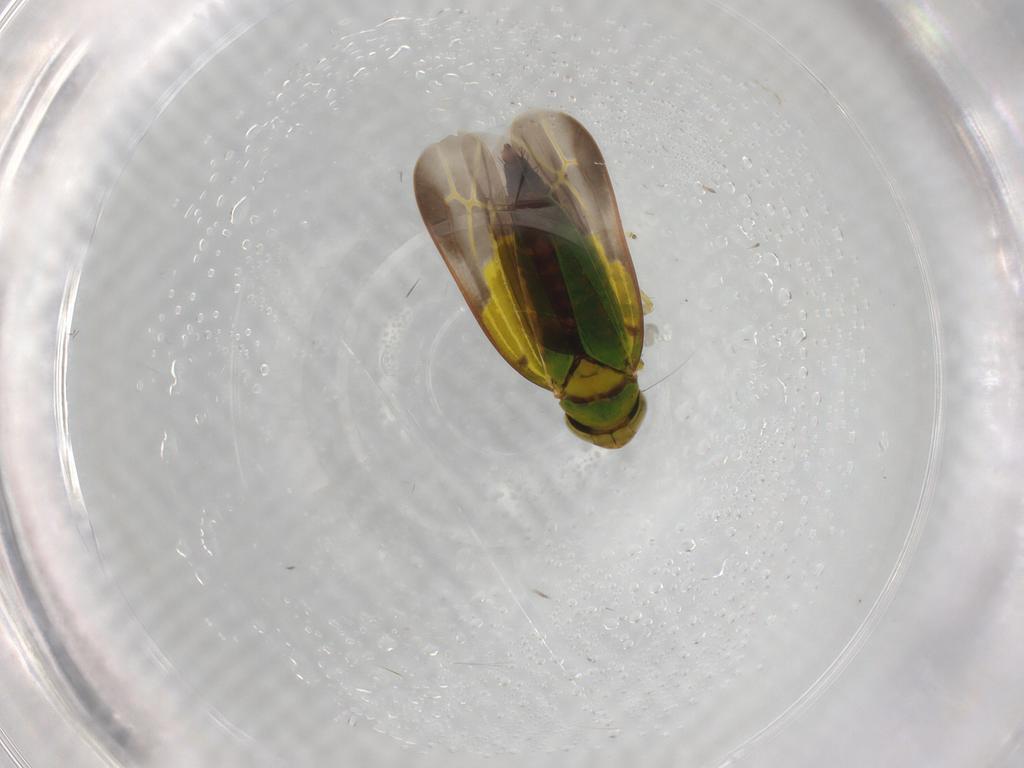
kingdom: Animalia
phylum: Arthropoda
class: Insecta
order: Hemiptera
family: Cicadellidae
